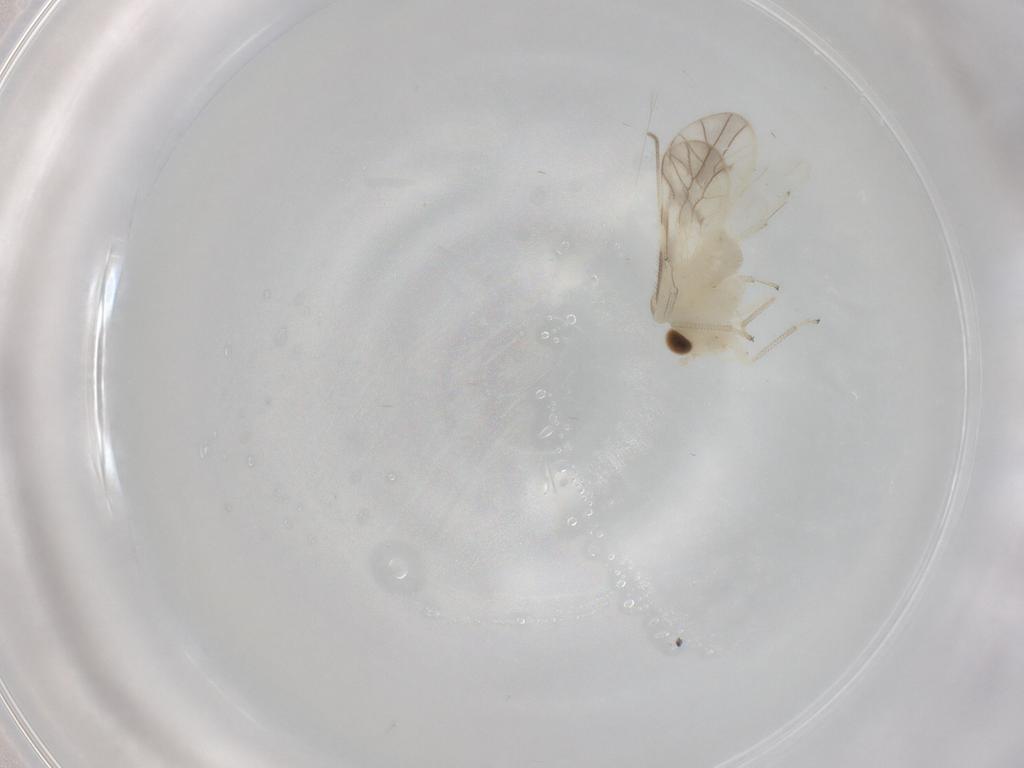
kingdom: Animalia
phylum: Arthropoda
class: Insecta
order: Psocodea
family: Caeciliusidae
